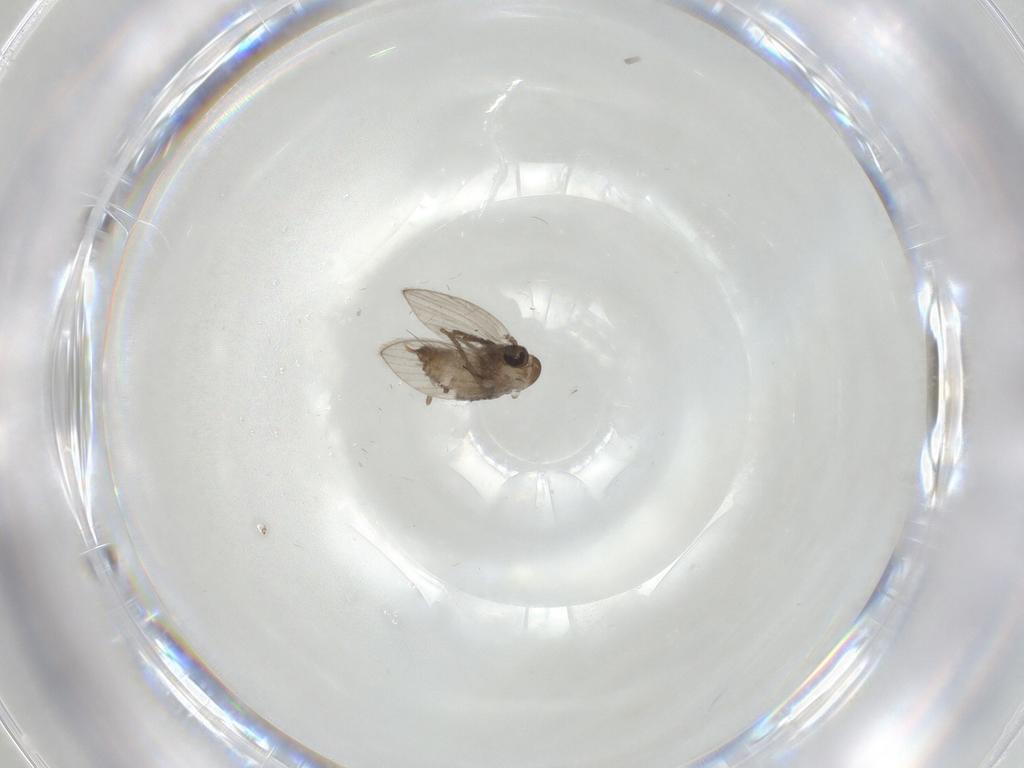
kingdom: Animalia
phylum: Arthropoda
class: Insecta
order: Diptera
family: Psychodidae
